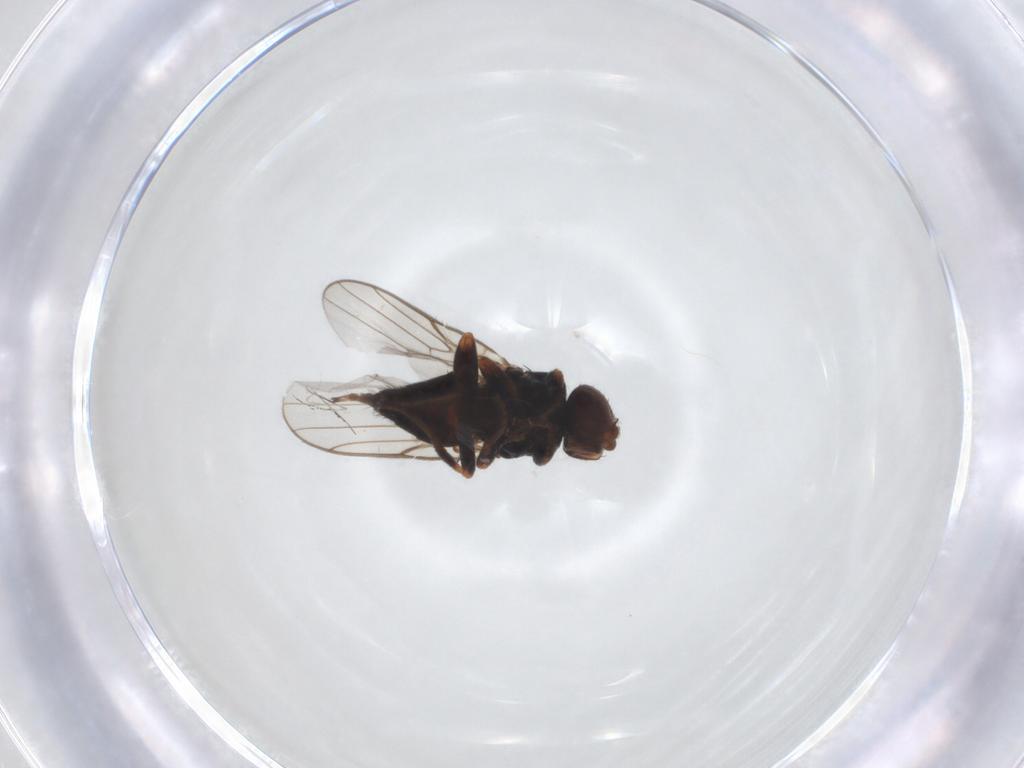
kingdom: Animalia
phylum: Arthropoda
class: Insecta
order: Diptera
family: Chloropidae
